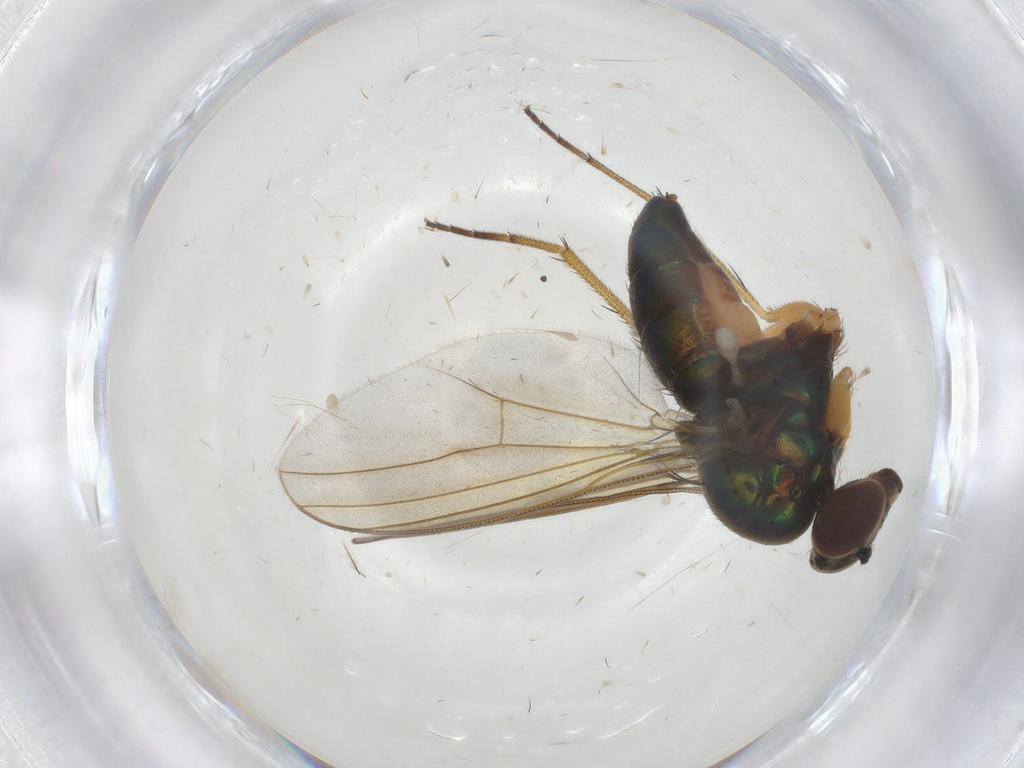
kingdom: Animalia
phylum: Arthropoda
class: Insecta
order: Diptera
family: Dolichopodidae
